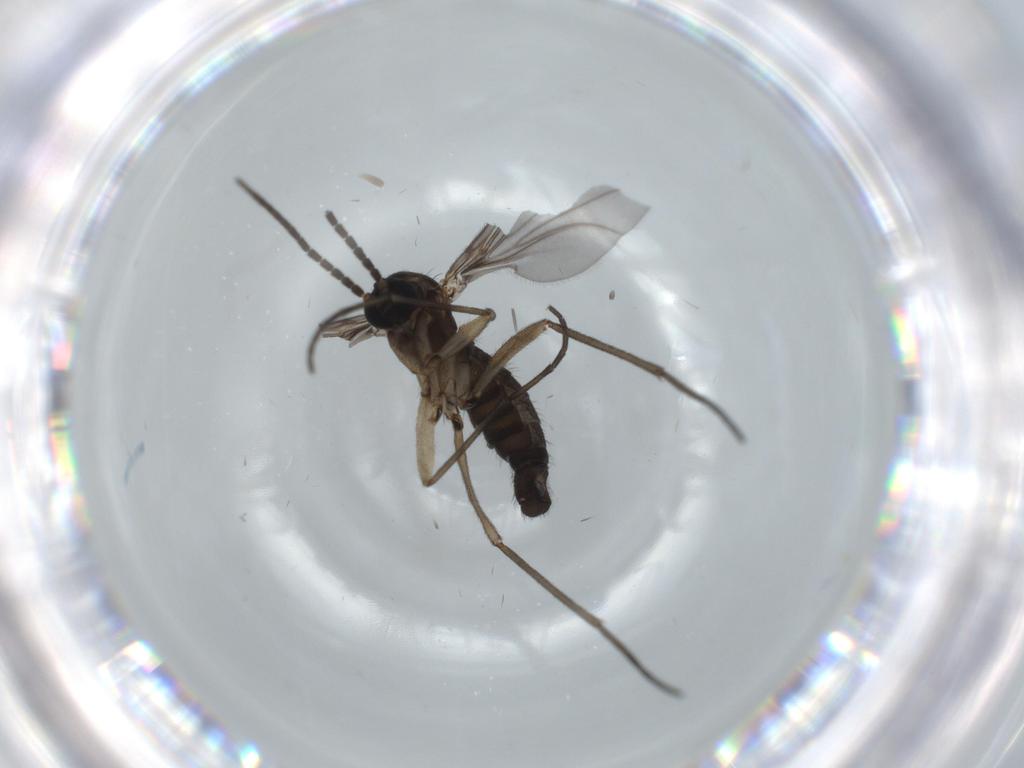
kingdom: Animalia
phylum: Arthropoda
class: Insecta
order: Diptera
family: Sciaridae
